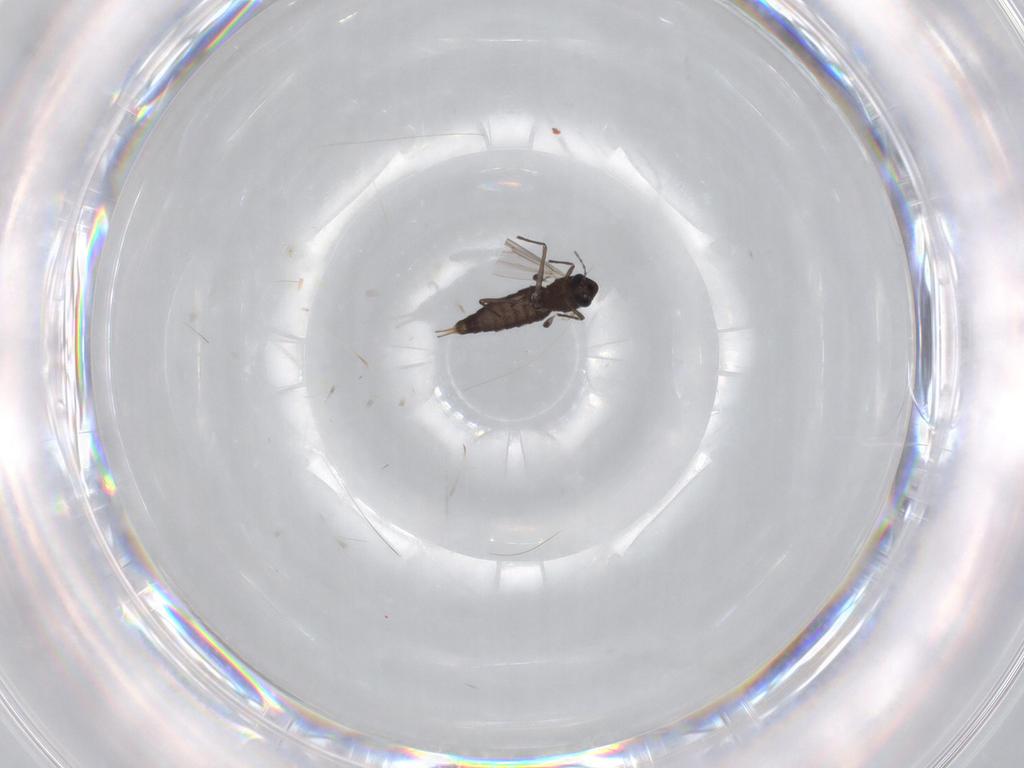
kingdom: Animalia
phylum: Arthropoda
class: Insecta
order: Diptera
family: Chironomidae
